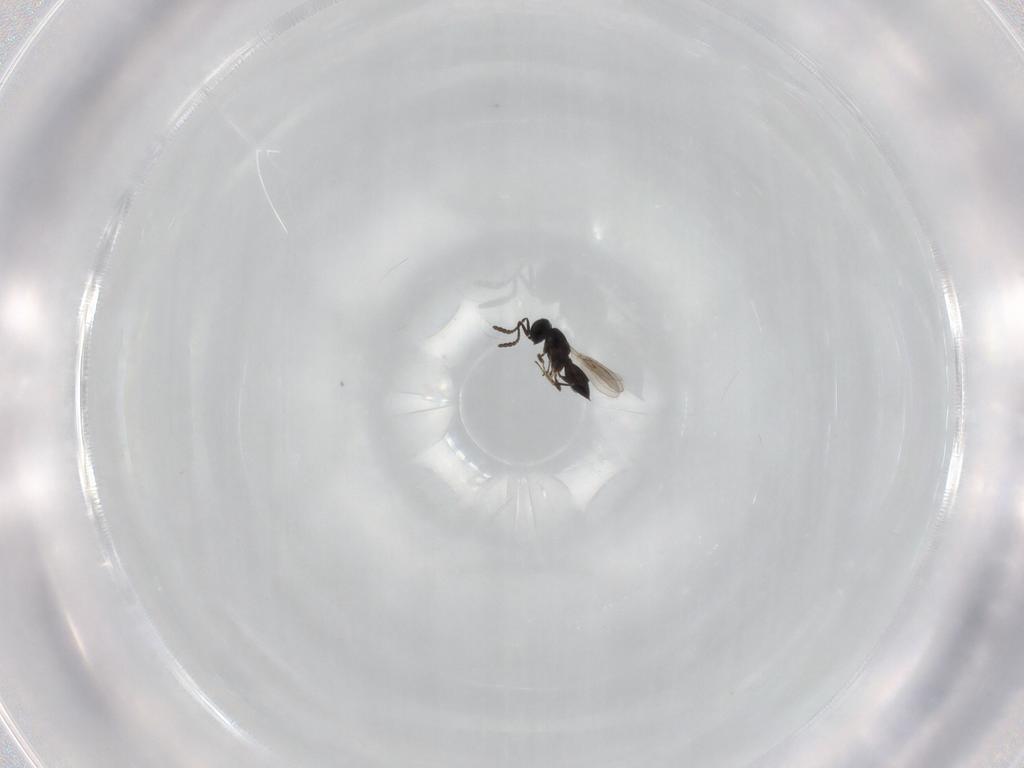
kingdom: Animalia
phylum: Arthropoda
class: Insecta
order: Hymenoptera
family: Scelionidae
